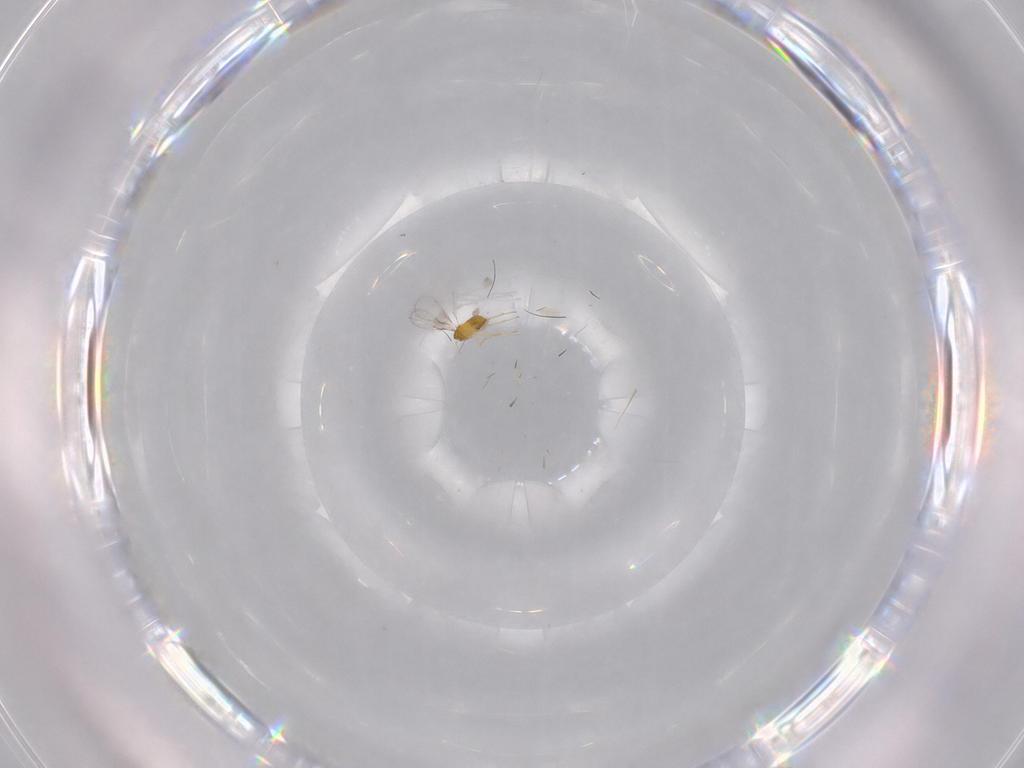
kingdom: Animalia
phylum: Arthropoda
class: Insecta
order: Hymenoptera
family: Trichogrammatidae
